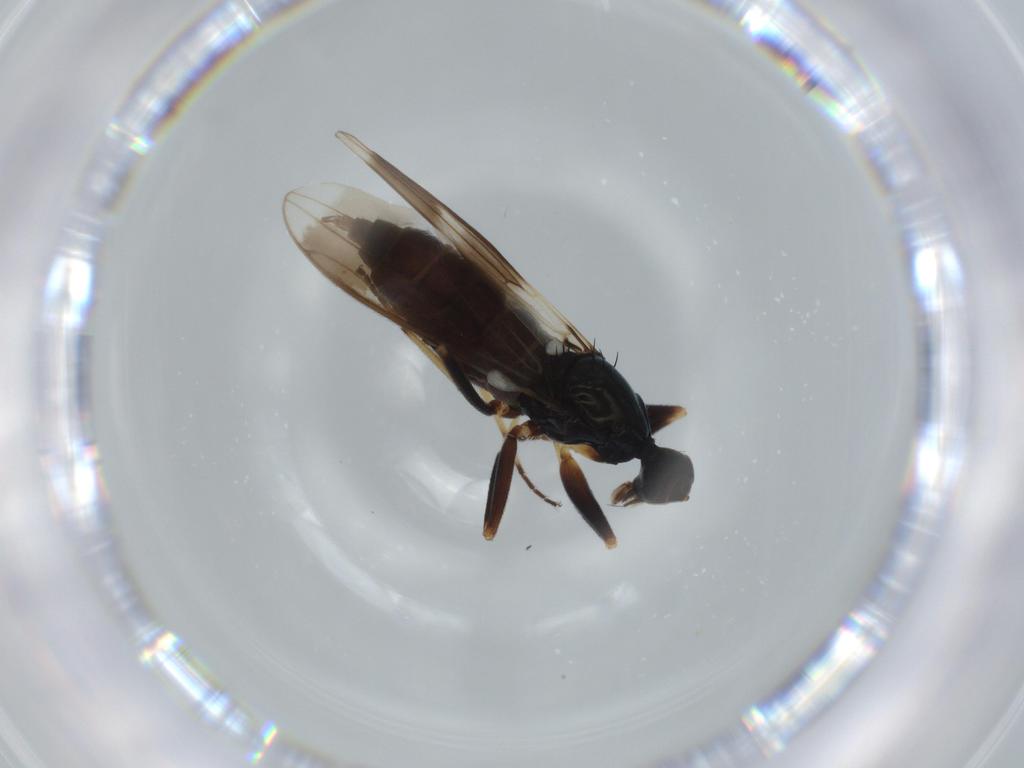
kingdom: Animalia
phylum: Arthropoda
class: Insecta
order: Diptera
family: Hybotidae
